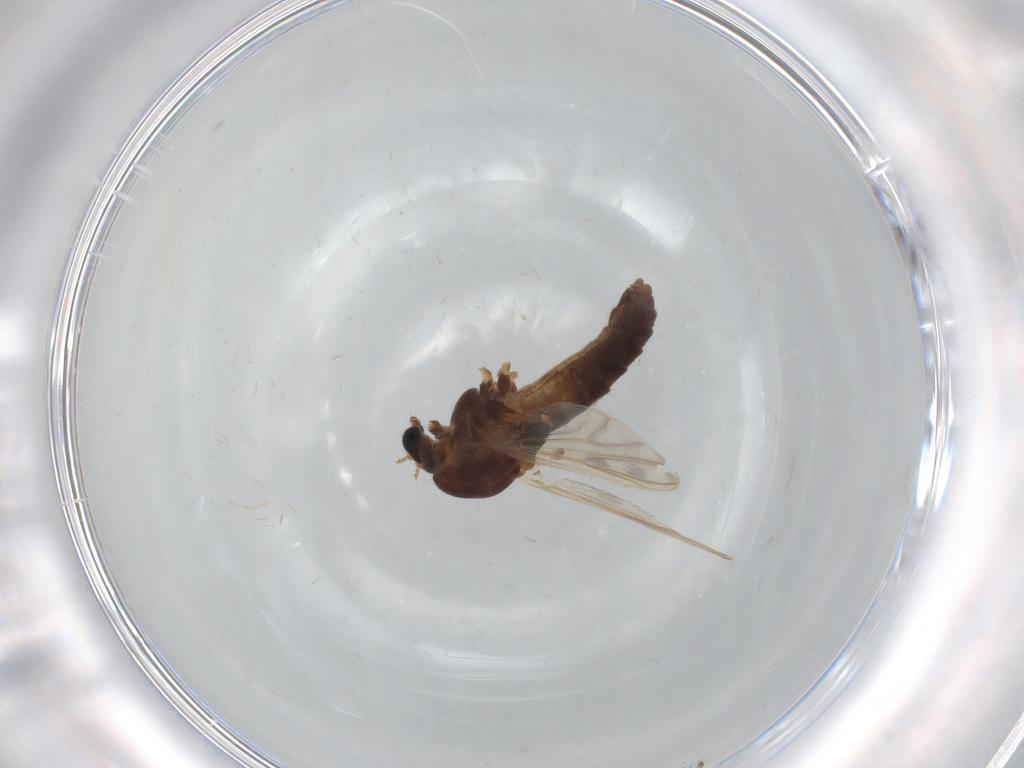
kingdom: Animalia
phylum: Arthropoda
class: Insecta
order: Diptera
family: Chironomidae
